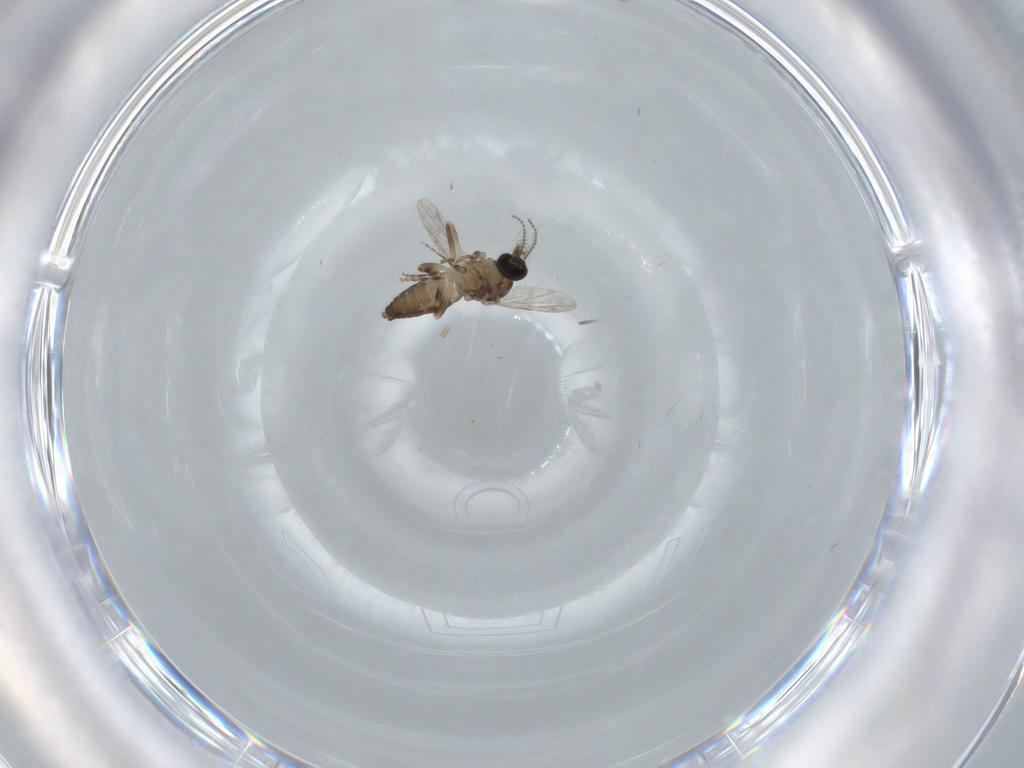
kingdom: Animalia
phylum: Arthropoda
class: Insecta
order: Diptera
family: Ceratopogonidae
